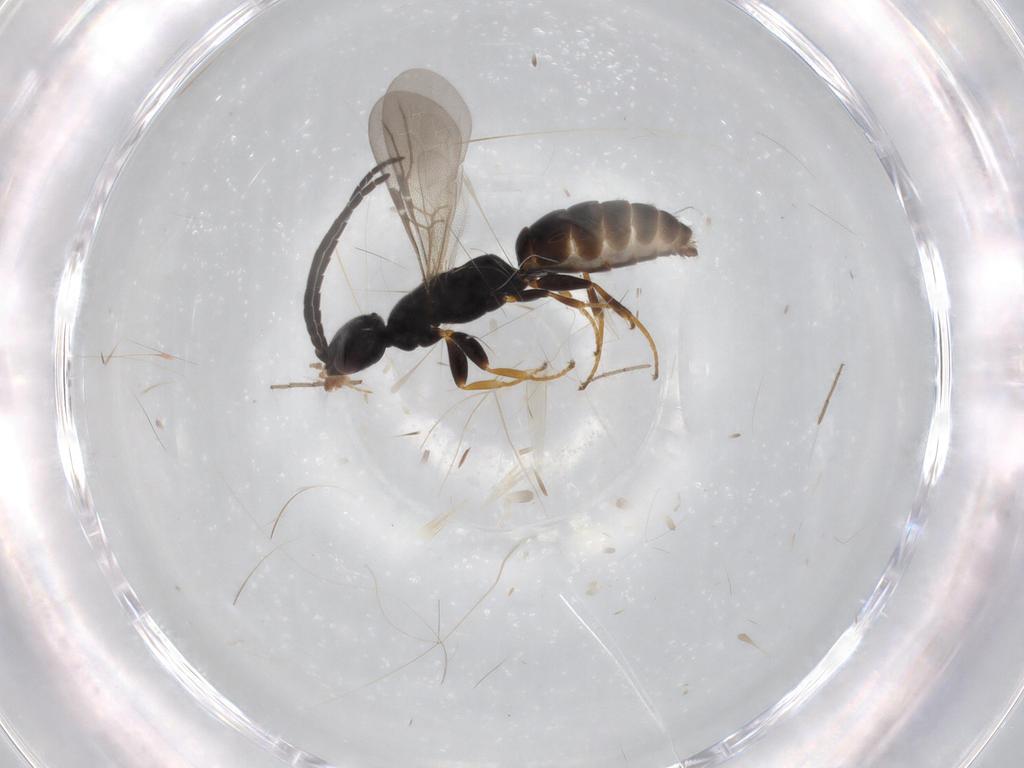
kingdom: Animalia
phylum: Arthropoda
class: Insecta
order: Hymenoptera
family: Bethylidae
